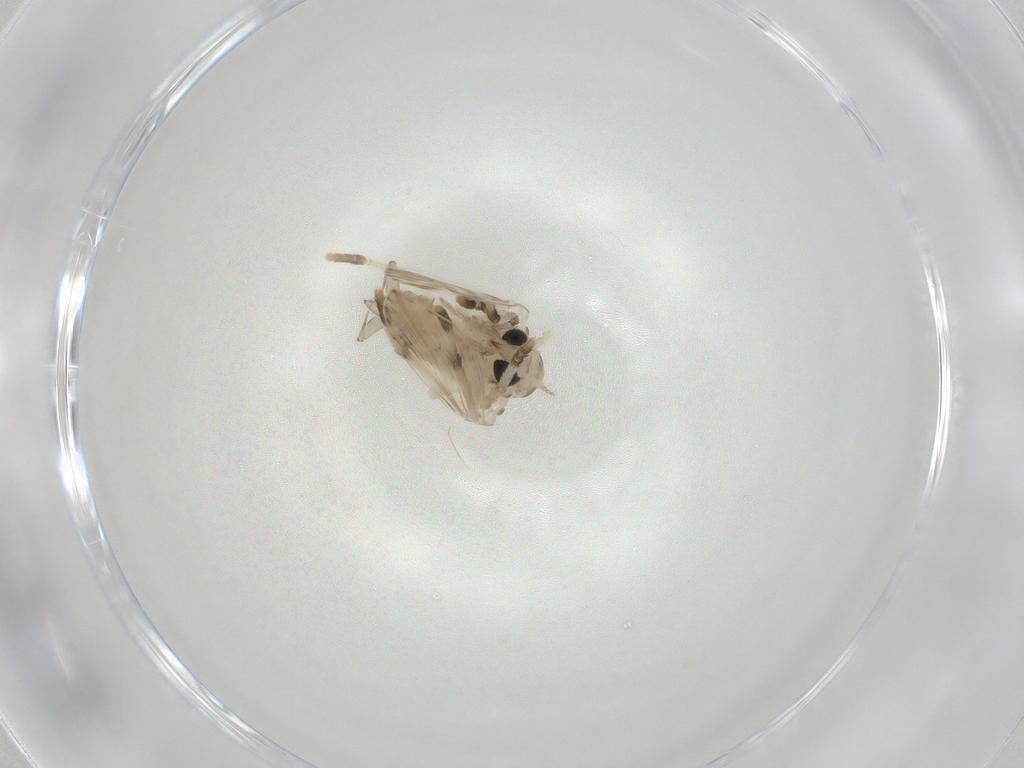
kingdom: Animalia
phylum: Arthropoda
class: Insecta
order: Diptera
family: Psychodidae
